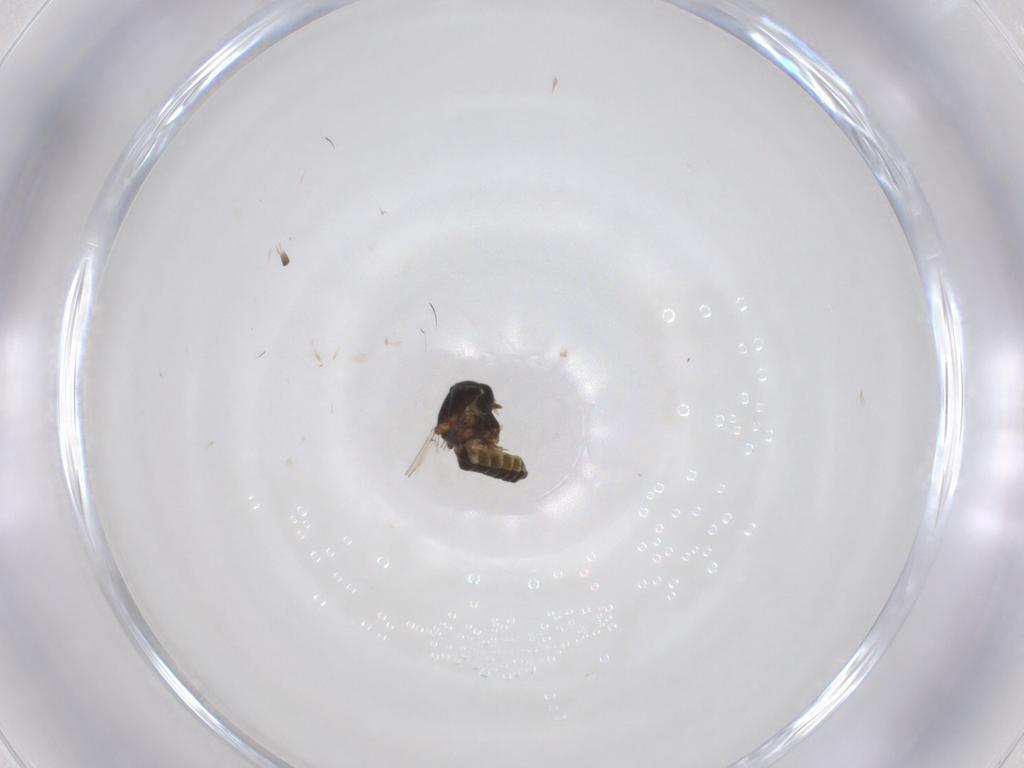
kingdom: Animalia
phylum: Arthropoda
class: Insecta
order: Diptera
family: Ceratopogonidae
